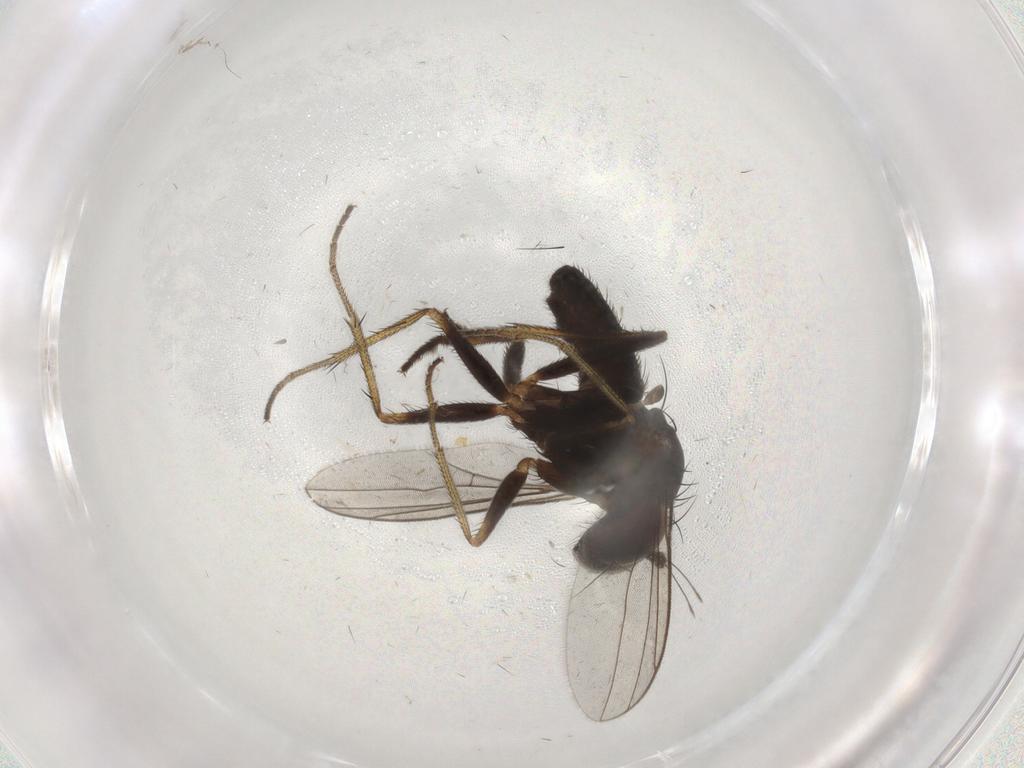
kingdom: Animalia
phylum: Arthropoda
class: Insecta
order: Diptera
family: Dolichopodidae
